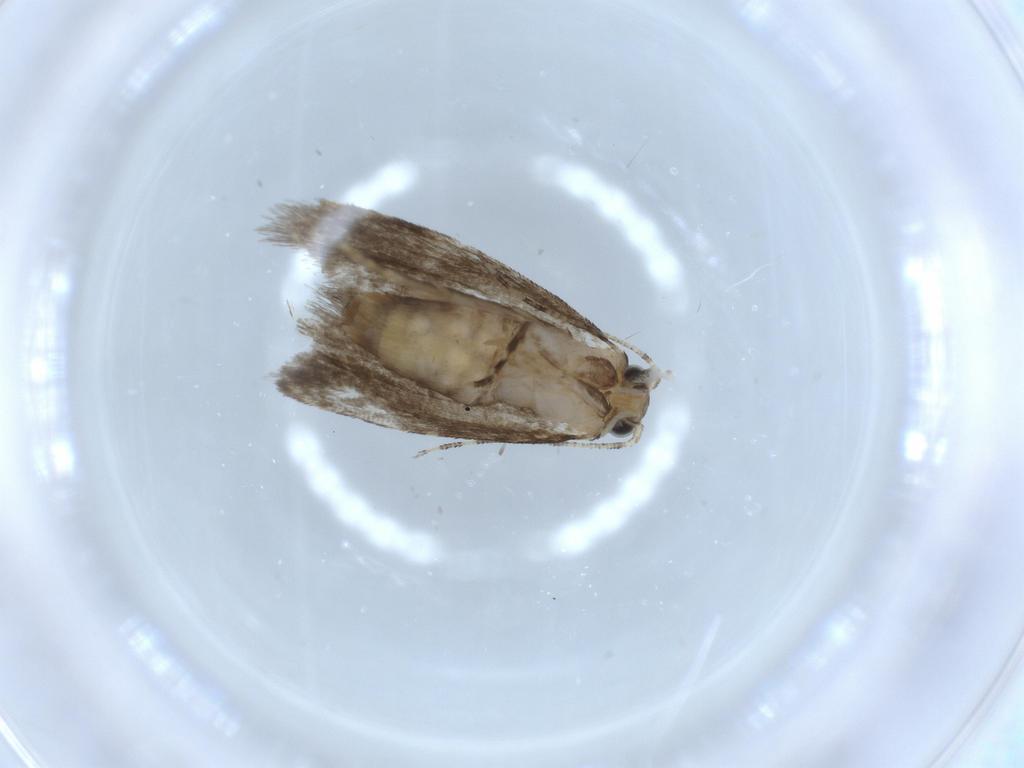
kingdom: Animalia
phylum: Arthropoda
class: Insecta
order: Lepidoptera
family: Tineidae
